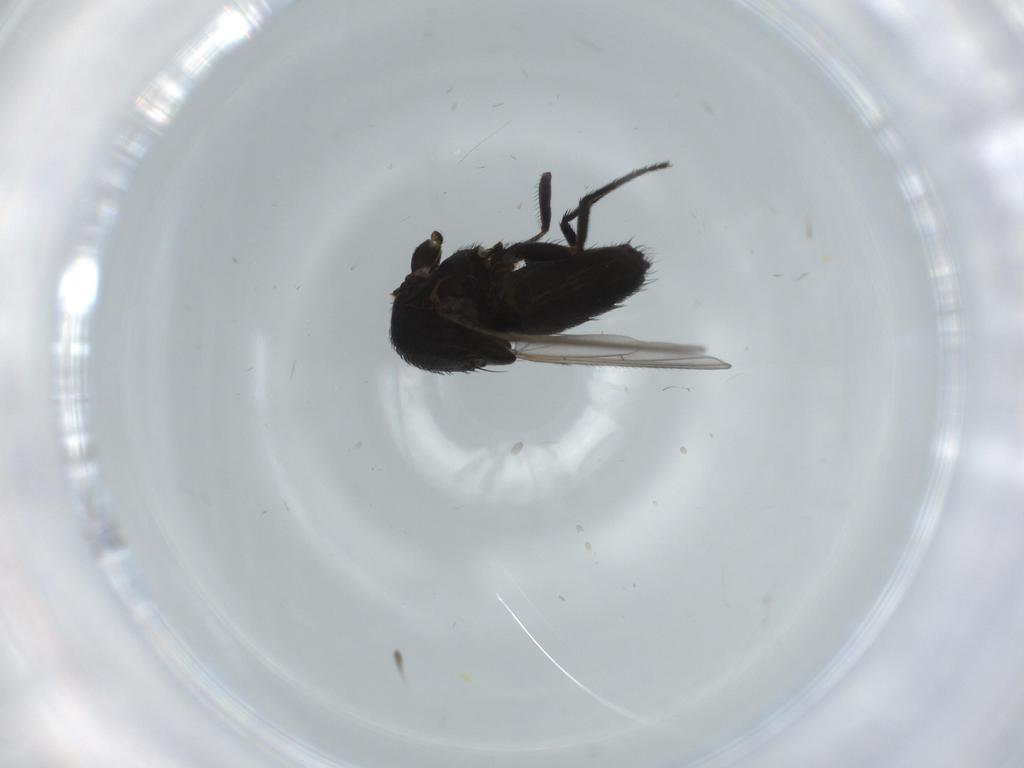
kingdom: Animalia
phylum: Arthropoda
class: Insecta
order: Diptera
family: Milichiidae
